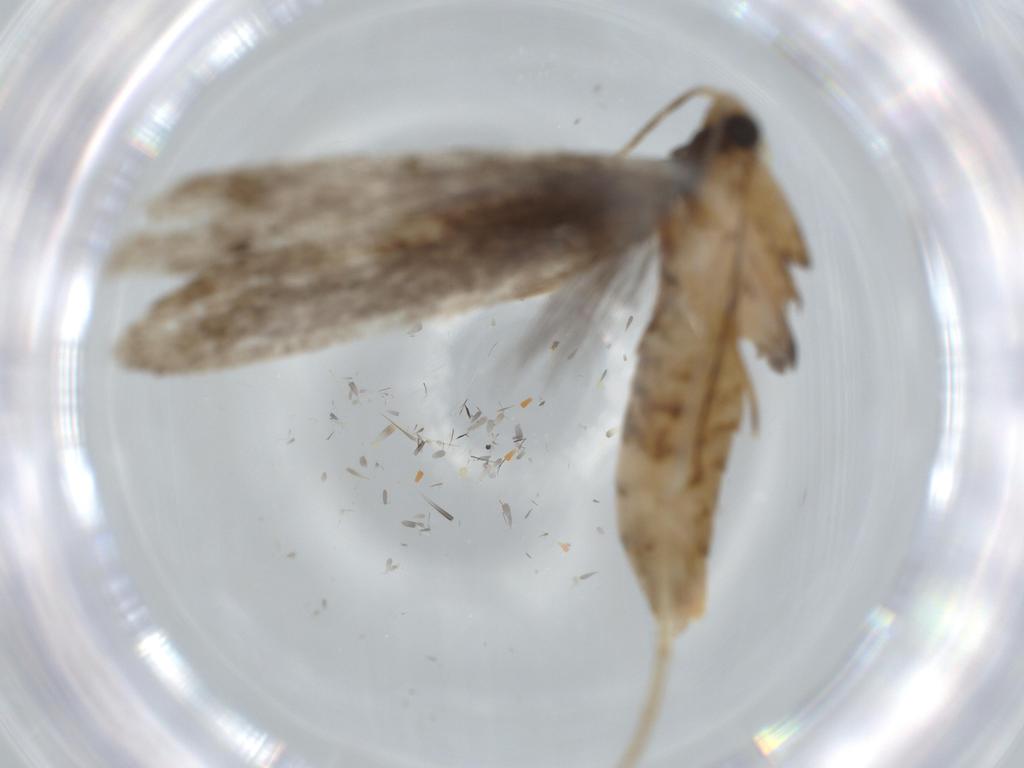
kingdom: Animalia
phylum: Arthropoda
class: Insecta
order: Lepidoptera
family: Tineidae
